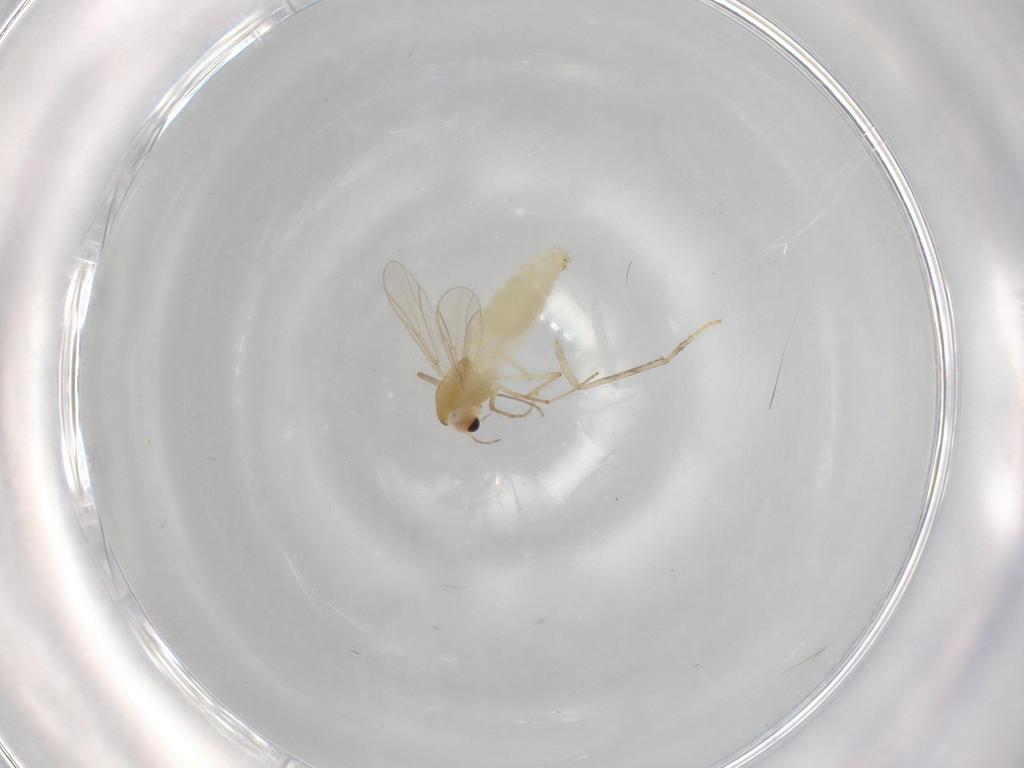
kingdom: Animalia
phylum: Arthropoda
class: Insecta
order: Diptera
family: Chironomidae
